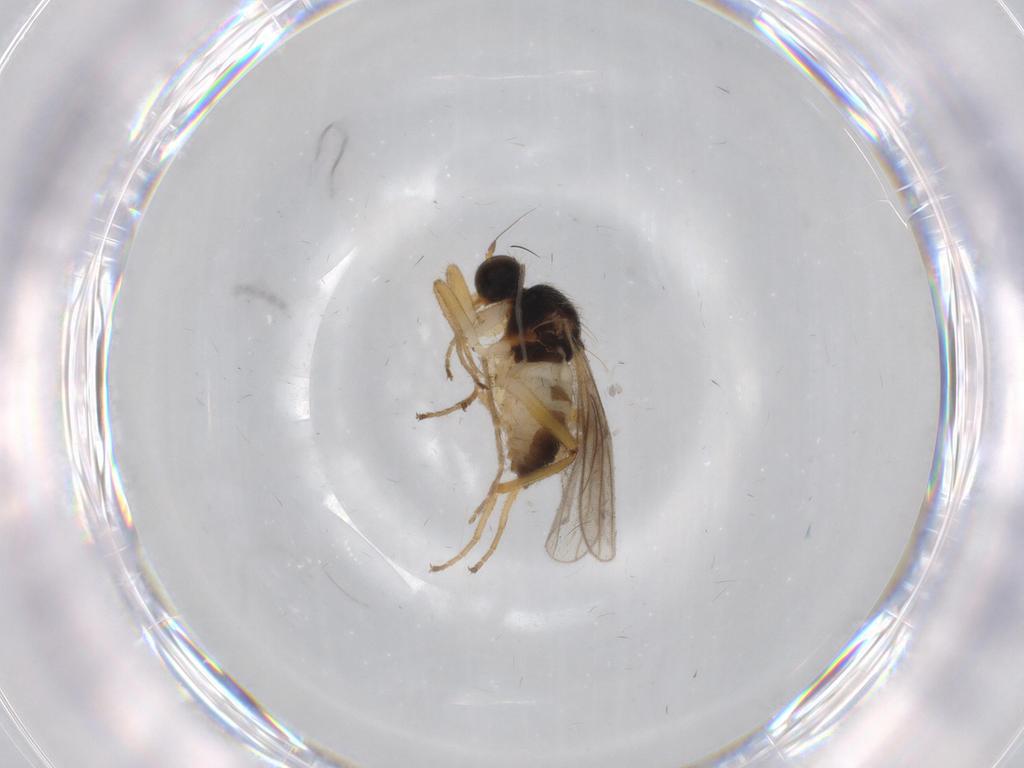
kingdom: Animalia
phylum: Arthropoda
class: Insecta
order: Diptera
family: Hybotidae
